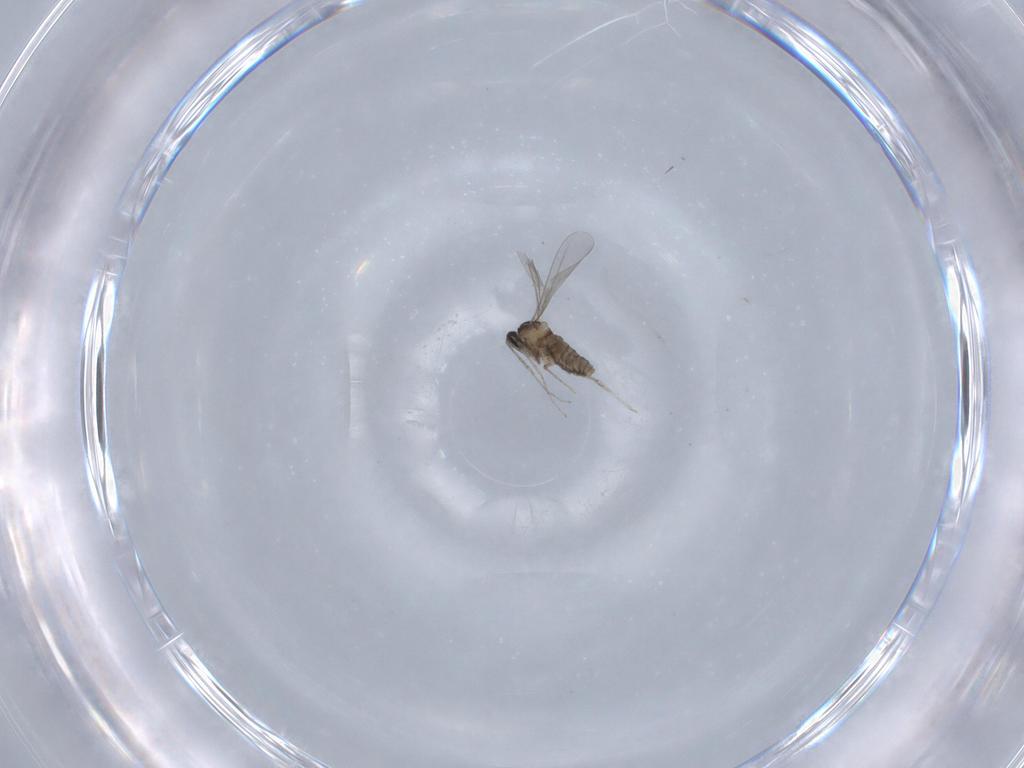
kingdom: Animalia
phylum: Arthropoda
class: Insecta
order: Diptera
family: Cecidomyiidae
